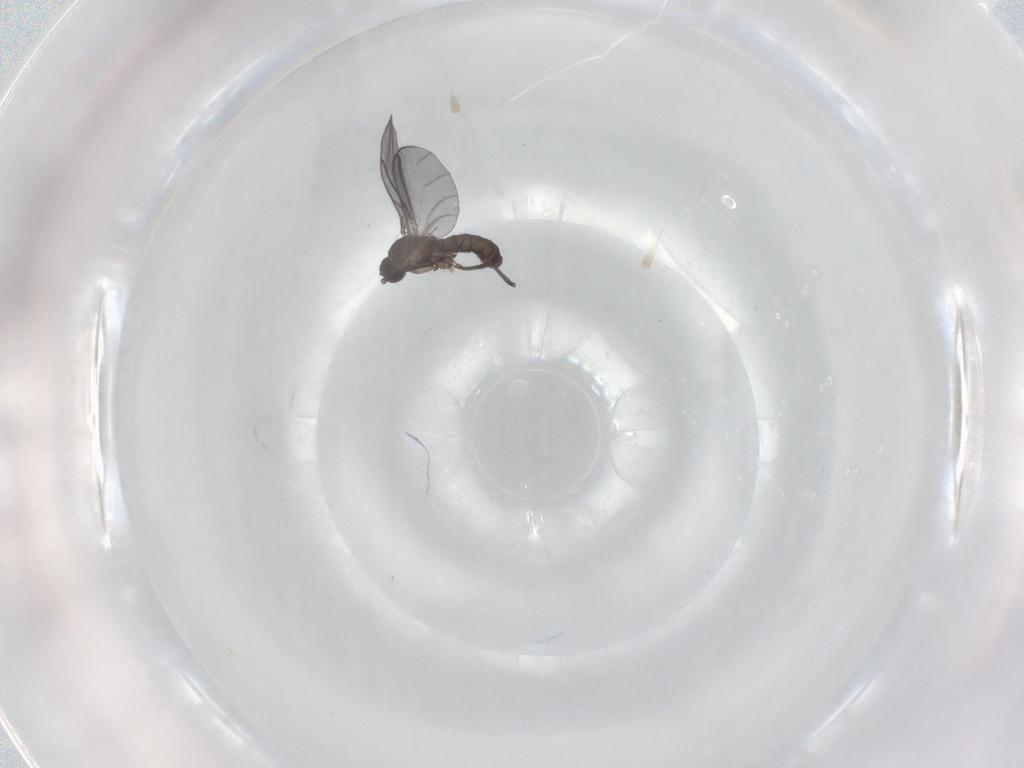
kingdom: Animalia
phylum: Arthropoda
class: Insecta
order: Diptera
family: Sciaridae
